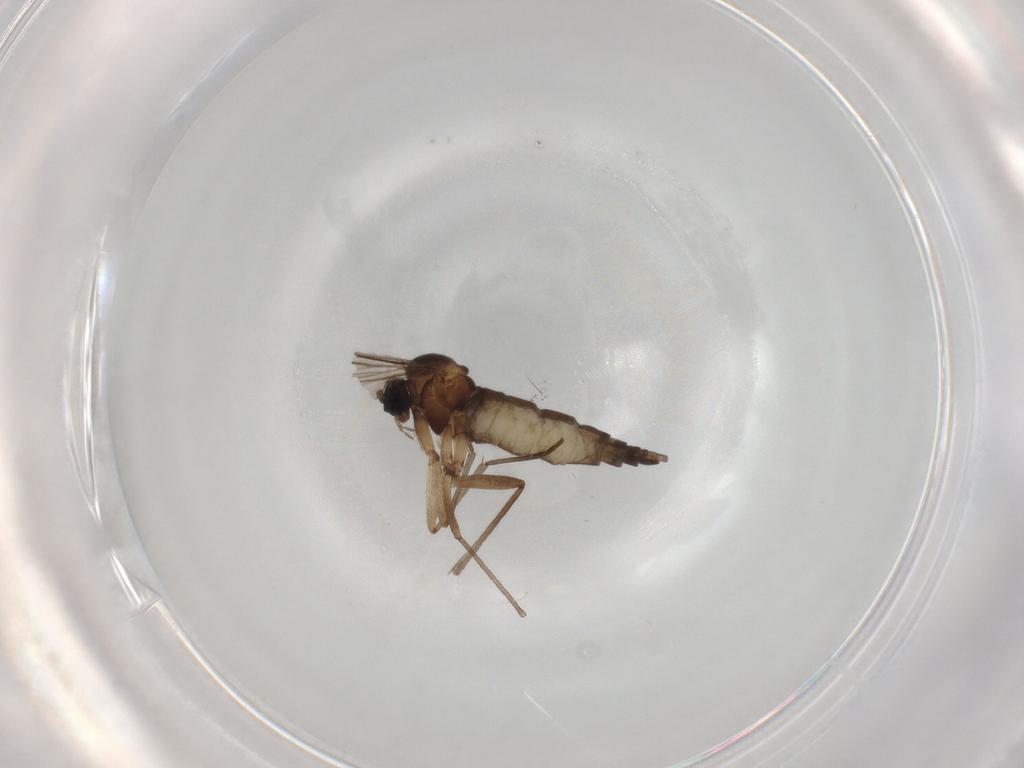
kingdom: Animalia
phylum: Arthropoda
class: Insecta
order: Diptera
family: Sciaridae
